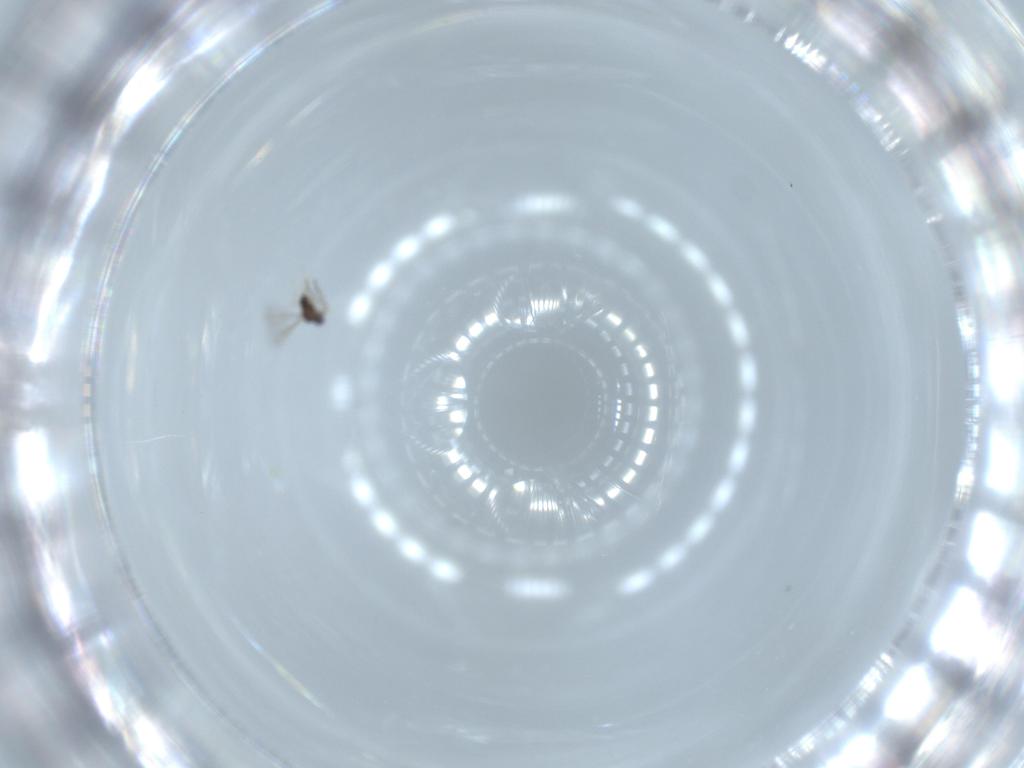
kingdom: Animalia
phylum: Arthropoda
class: Insecta
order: Hymenoptera
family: Diapriidae
